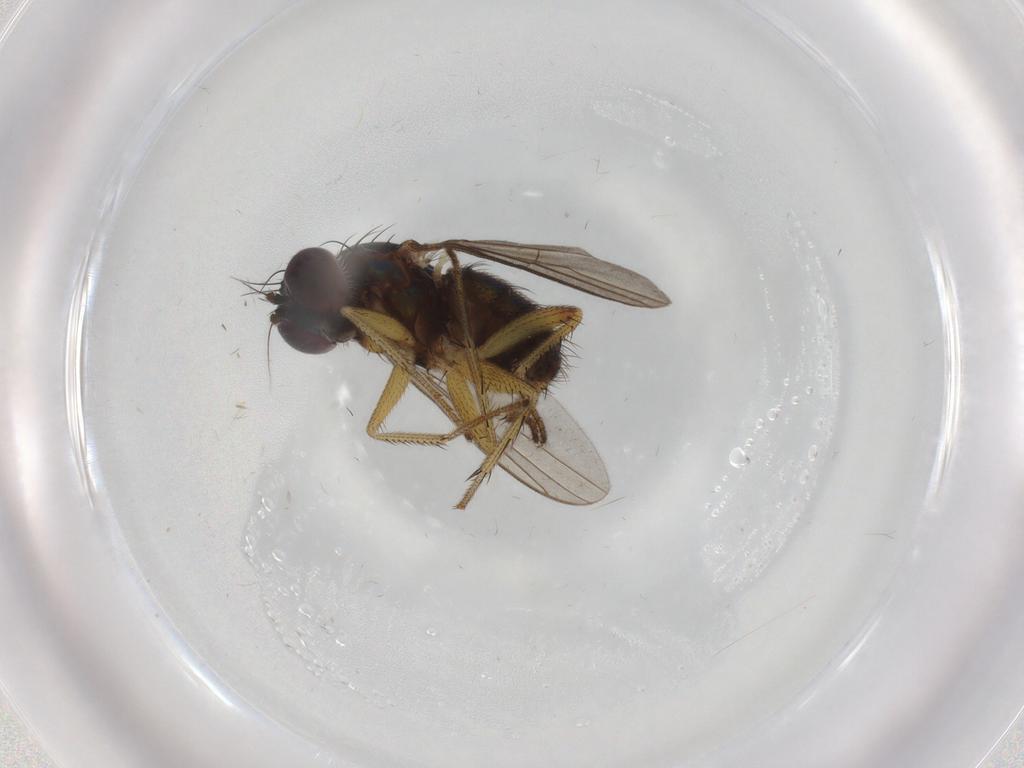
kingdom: Animalia
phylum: Arthropoda
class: Insecta
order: Diptera
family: Dolichopodidae
